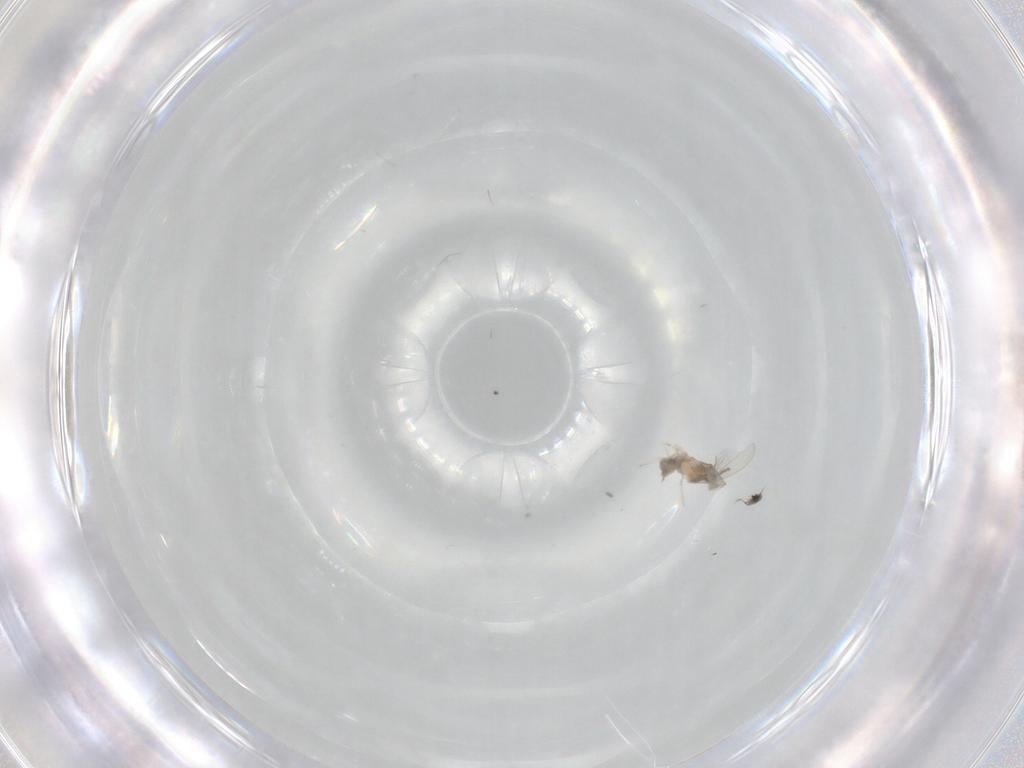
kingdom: Animalia
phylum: Arthropoda
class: Insecta
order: Diptera
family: Cecidomyiidae
